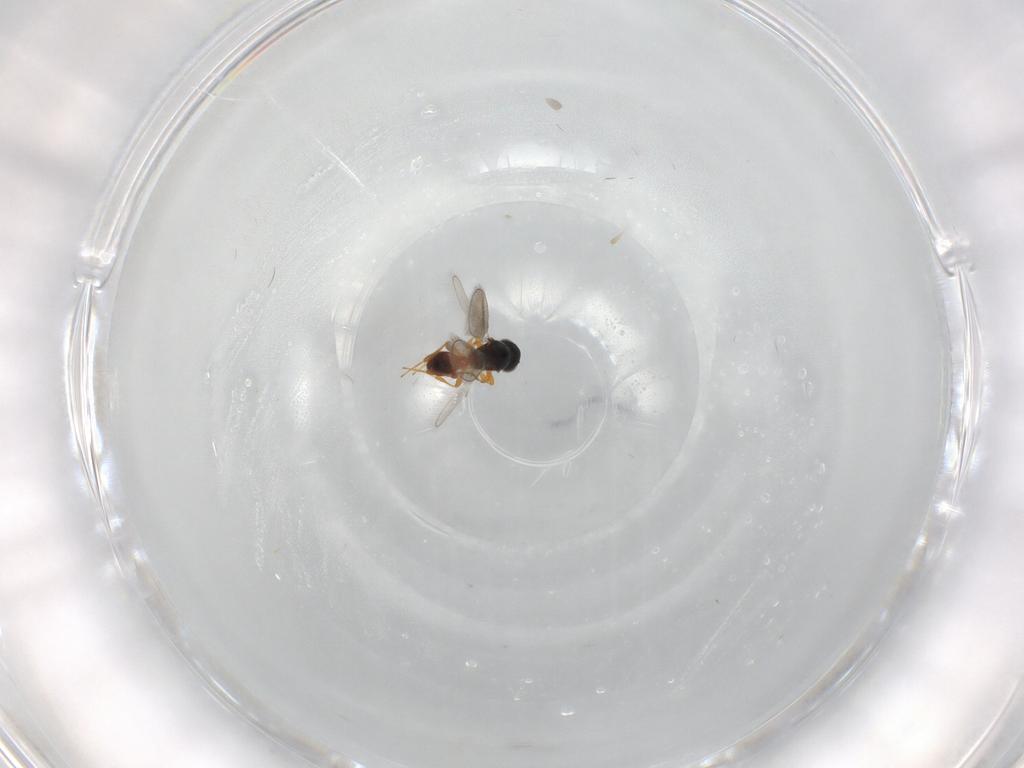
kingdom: Animalia
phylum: Arthropoda
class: Insecta
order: Hymenoptera
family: Platygastridae
